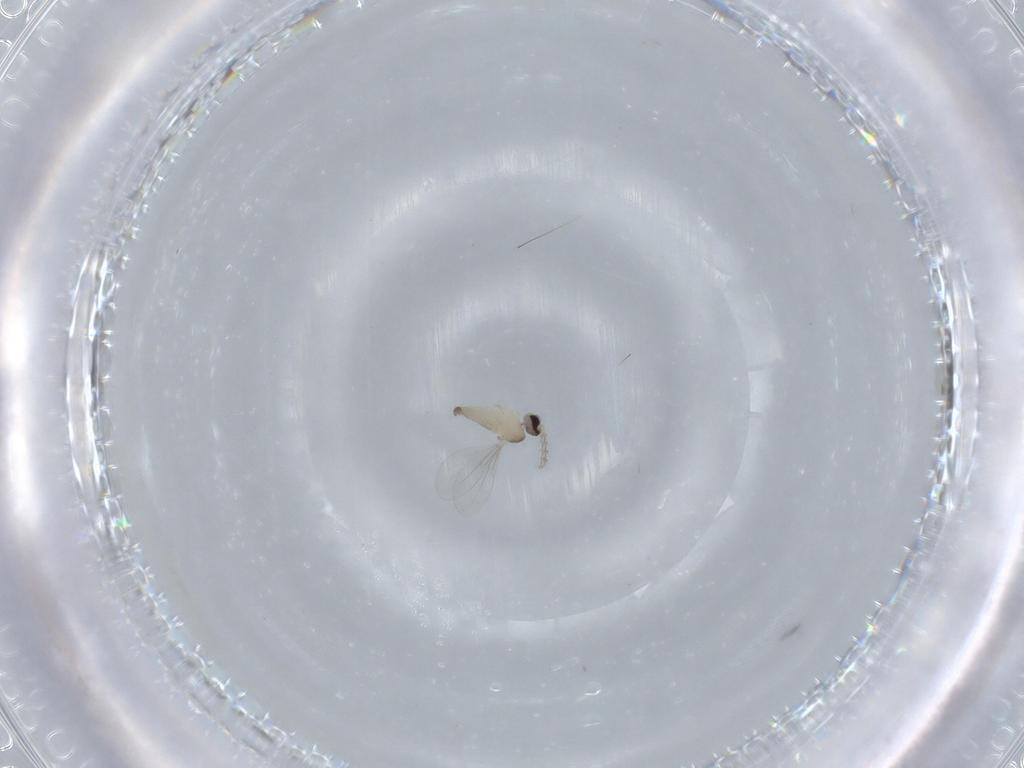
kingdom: Animalia
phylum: Arthropoda
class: Insecta
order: Diptera
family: Cecidomyiidae
